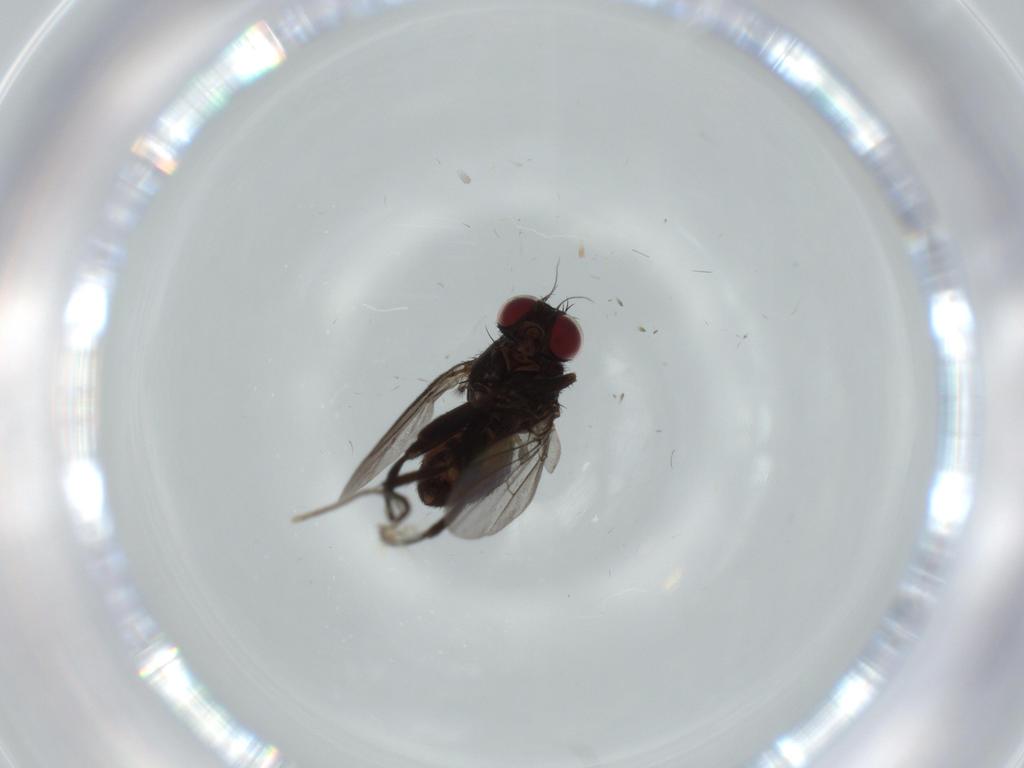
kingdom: Animalia
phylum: Arthropoda
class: Insecta
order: Diptera
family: Agromyzidae
